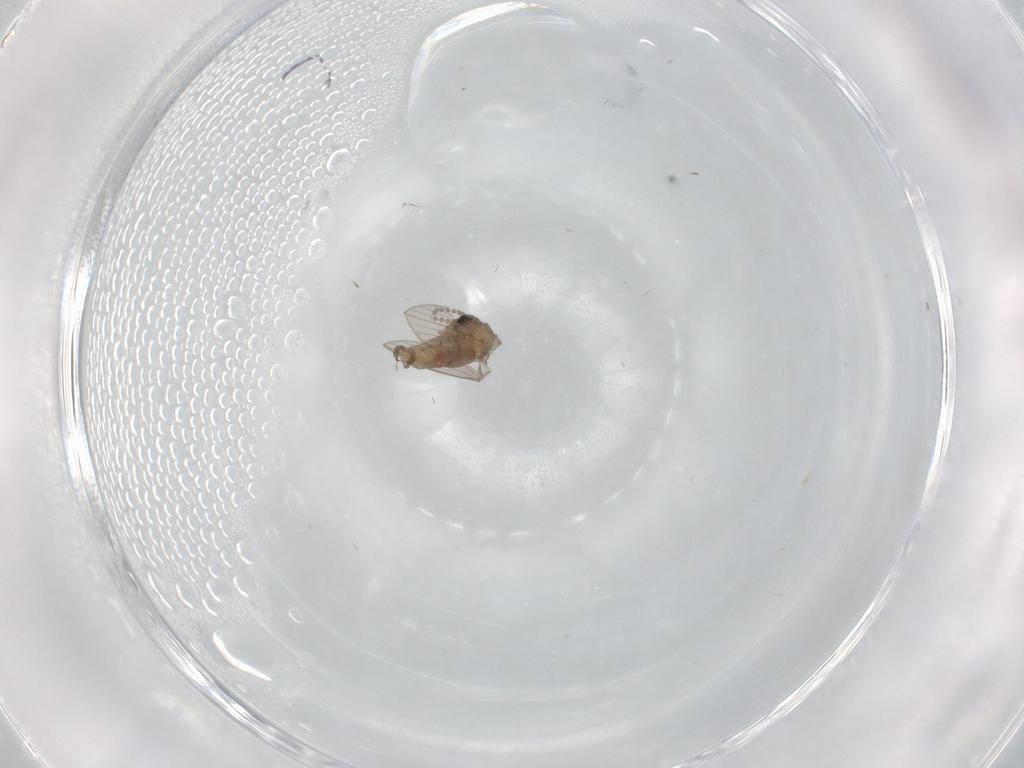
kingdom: Animalia
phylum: Arthropoda
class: Insecta
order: Diptera
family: Psychodidae
